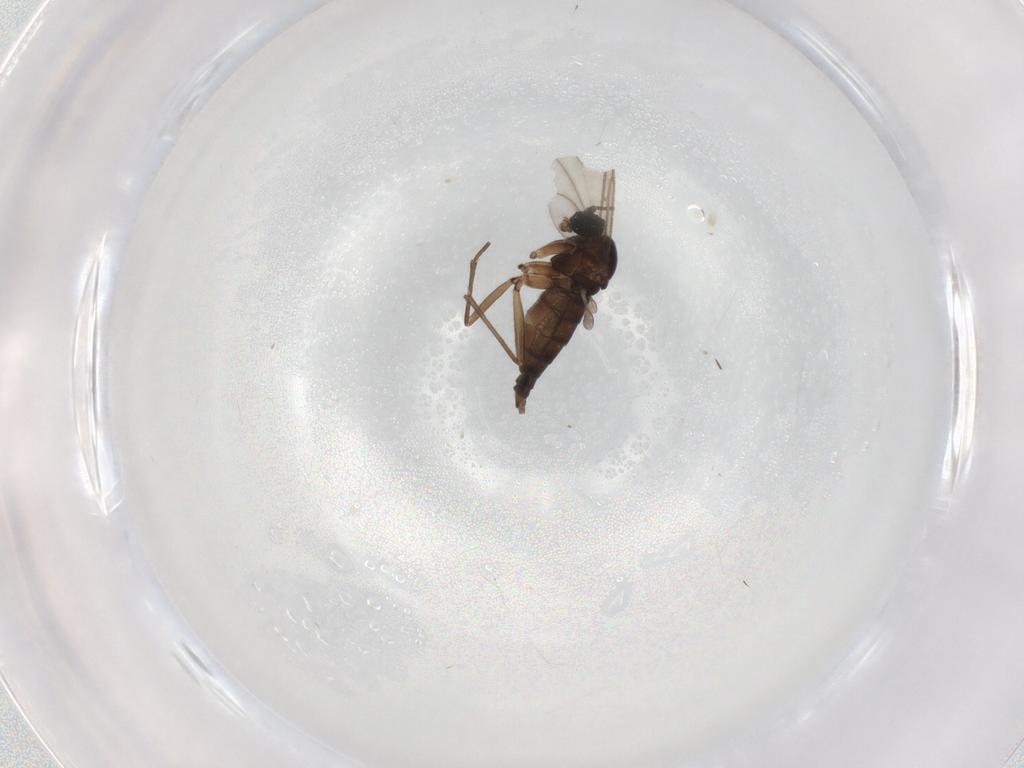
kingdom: Animalia
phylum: Arthropoda
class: Insecta
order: Diptera
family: Sciaridae
